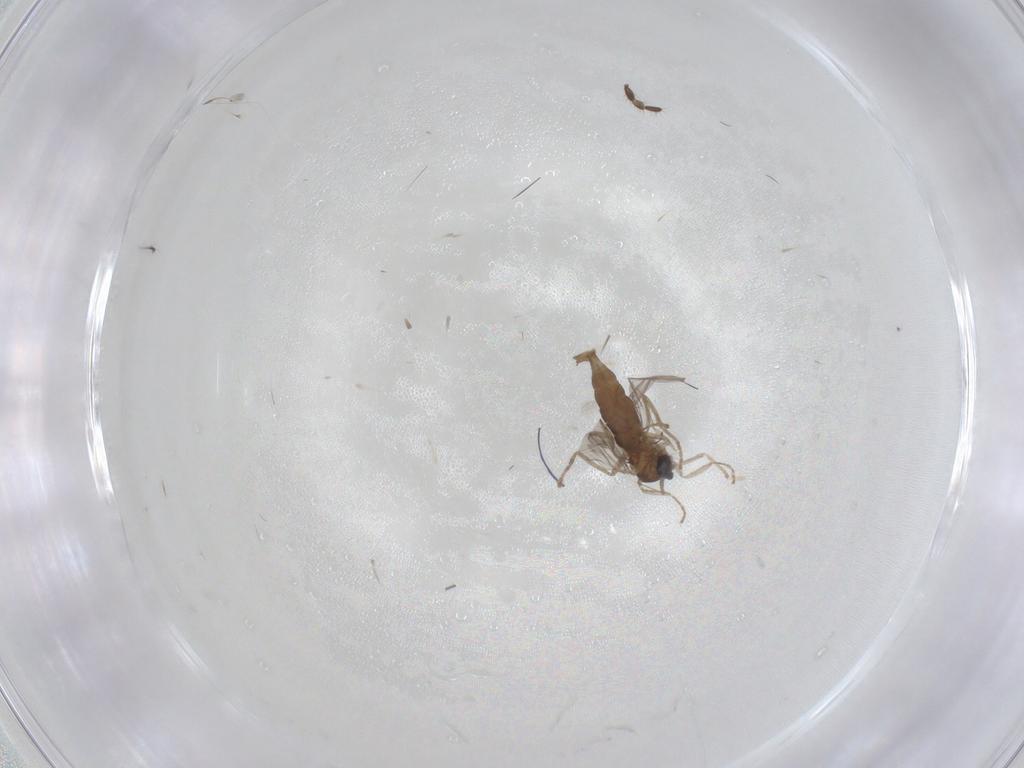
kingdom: Animalia
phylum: Arthropoda
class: Insecta
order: Diptera
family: Cecidomyiidae
